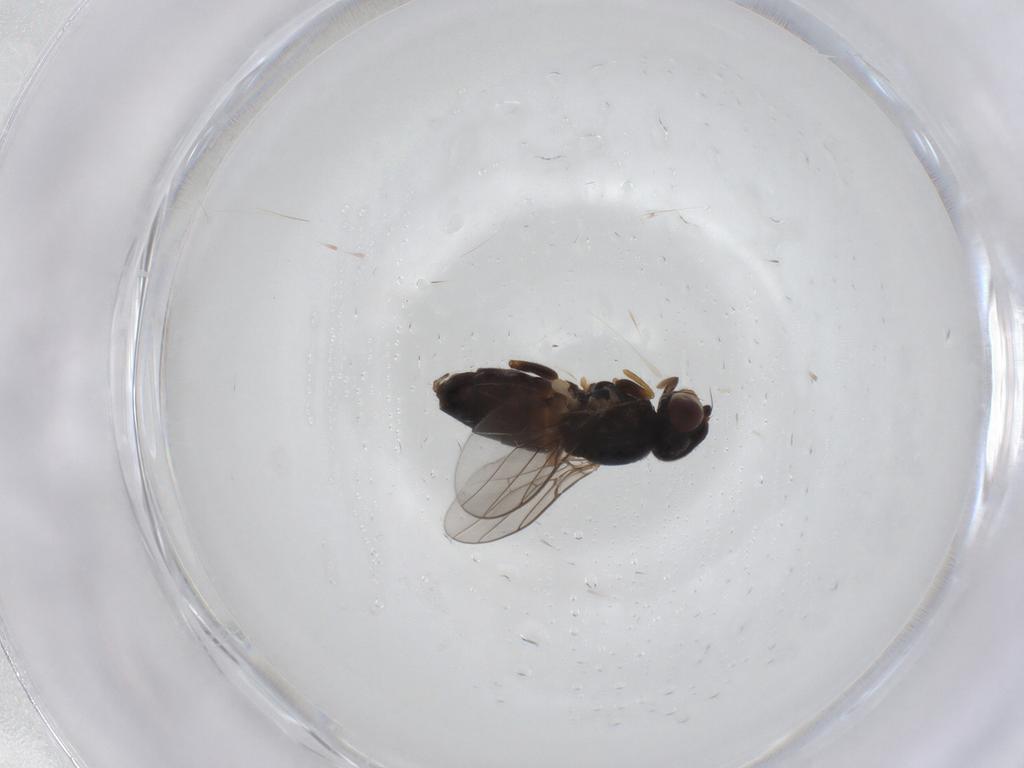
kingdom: Animalia
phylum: Arthropoda
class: Insecta
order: Diptera
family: Chloropidae
